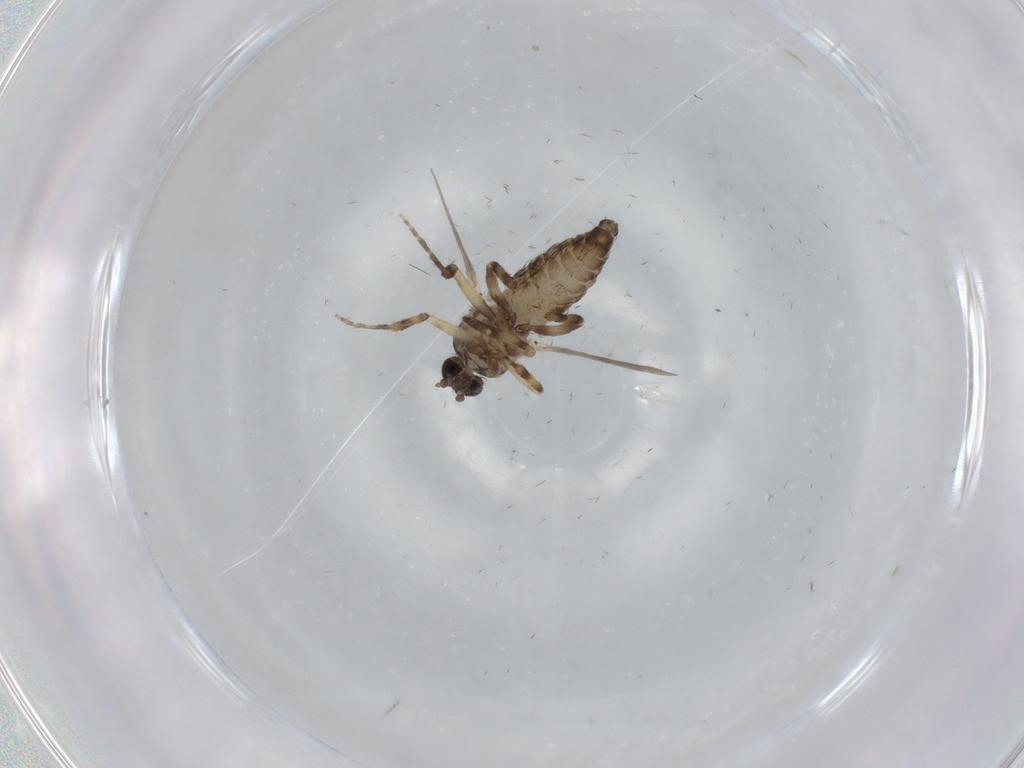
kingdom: Animalia
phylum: Arthropoda
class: Insecta
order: Diptera
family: Ceratopogonidae
